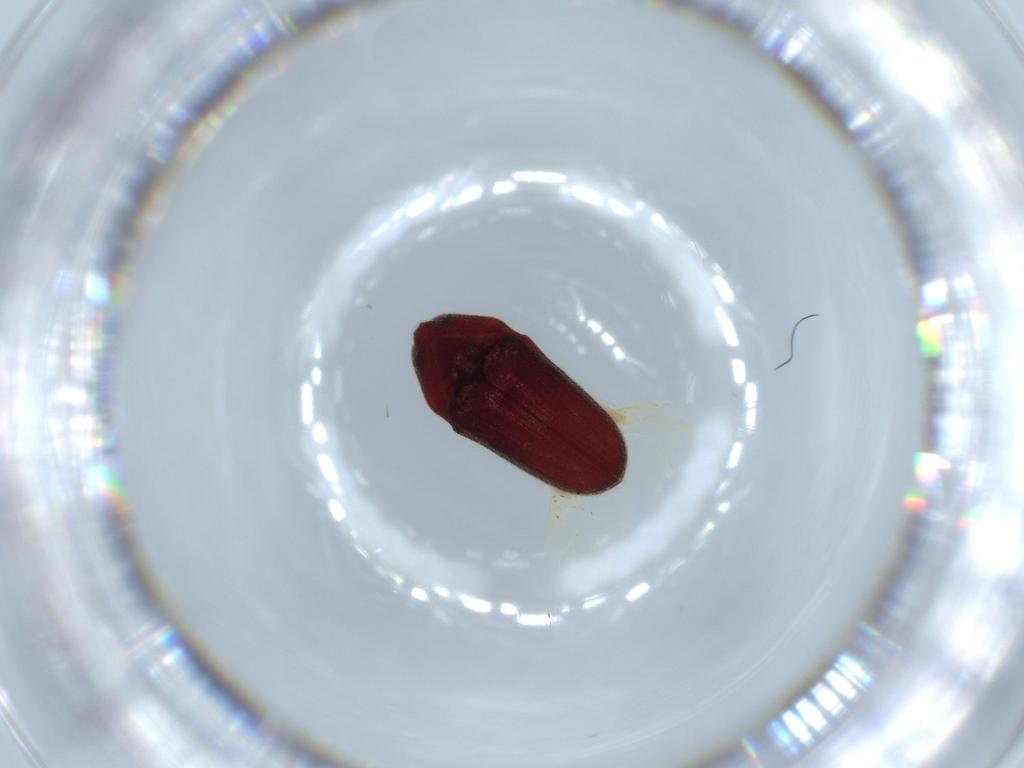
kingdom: Animalia
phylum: Arthropoda
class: Insecta
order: Coleoptera
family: Throscidae
